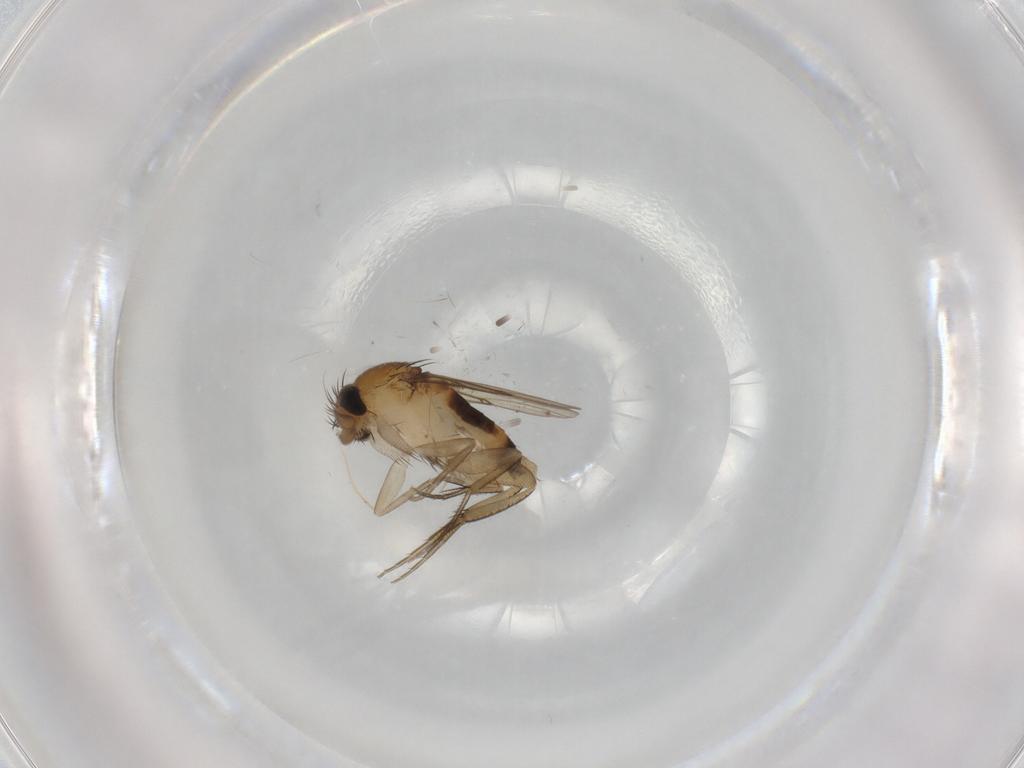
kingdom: Animalia
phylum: Arthropoda
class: Insecta
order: Diptera
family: Phoridae
